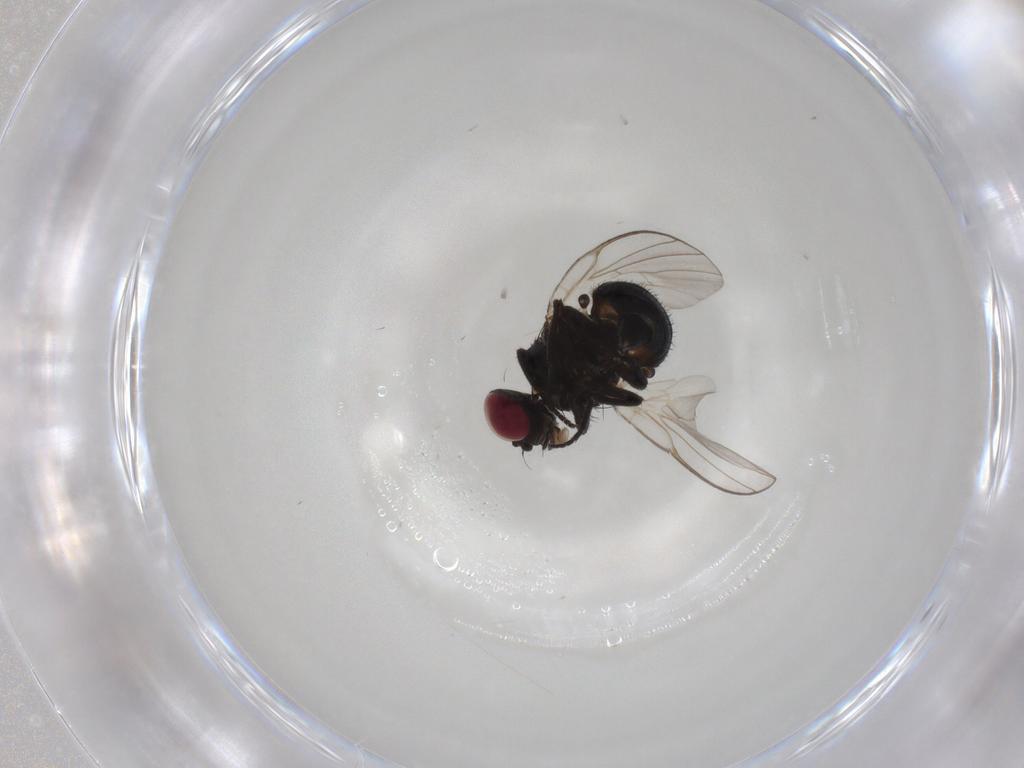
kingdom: Animalia
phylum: Arthropoda
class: Insecta
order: Diptera
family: Agromyzidae
